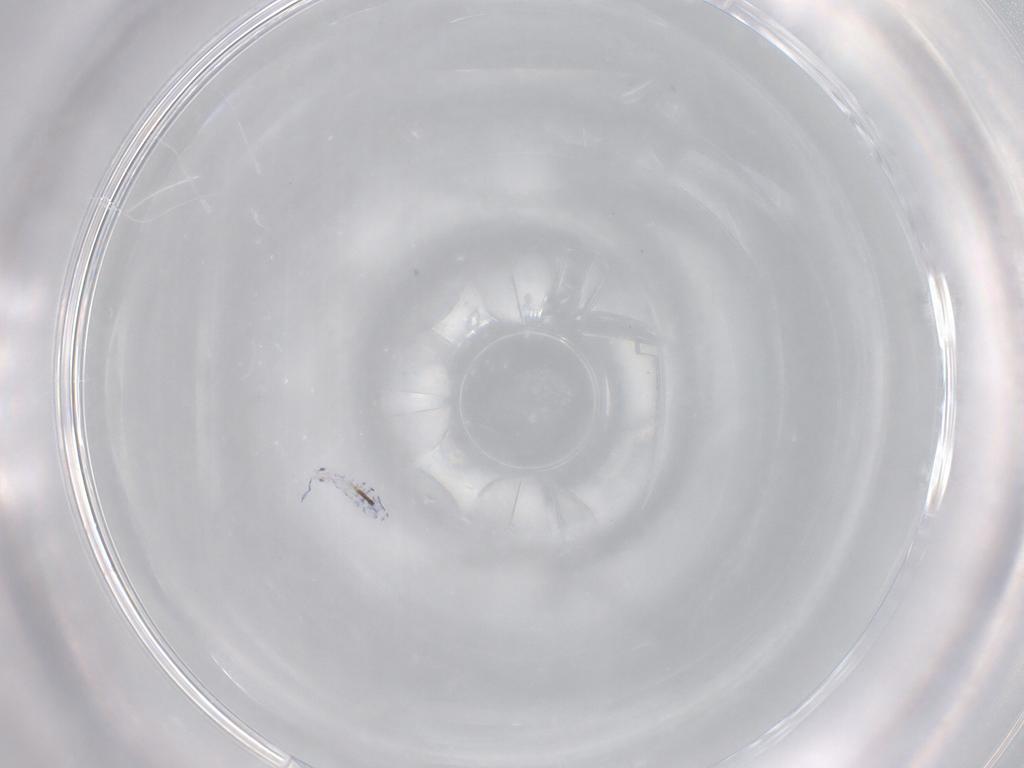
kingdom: Animalia
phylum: Arthropoda
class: Collembola
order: Entomobryomorpha
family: Entomobryidae
